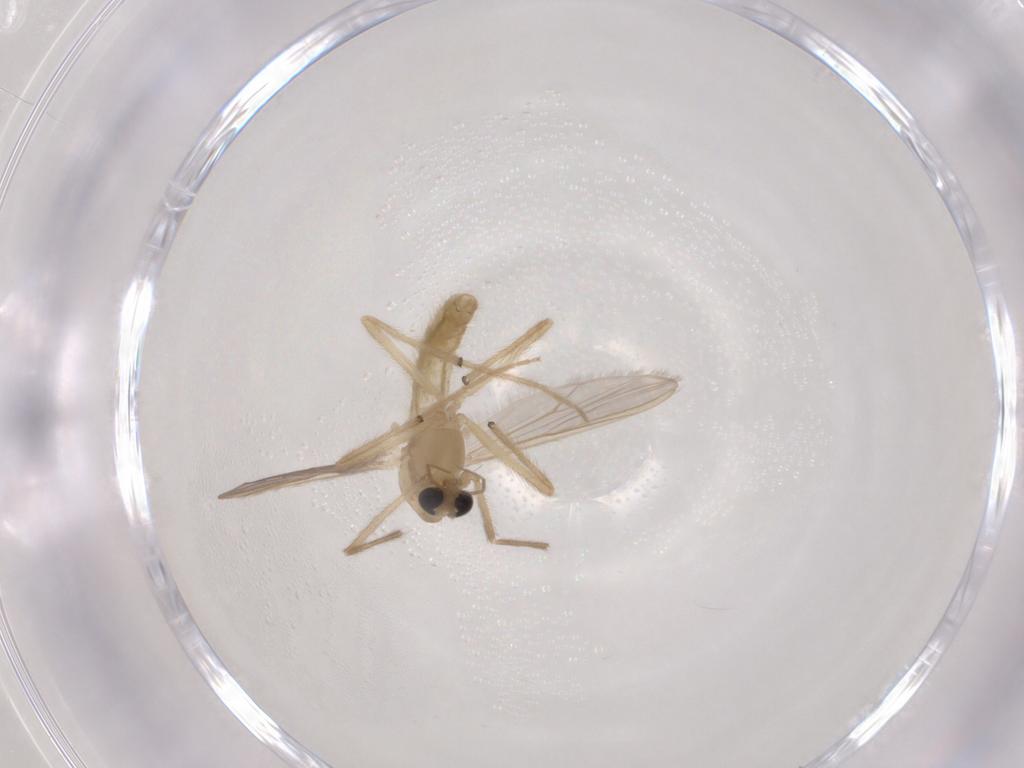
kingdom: Animalia
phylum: Arthropoda
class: Insecta
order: Diptera
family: Chironomidae
